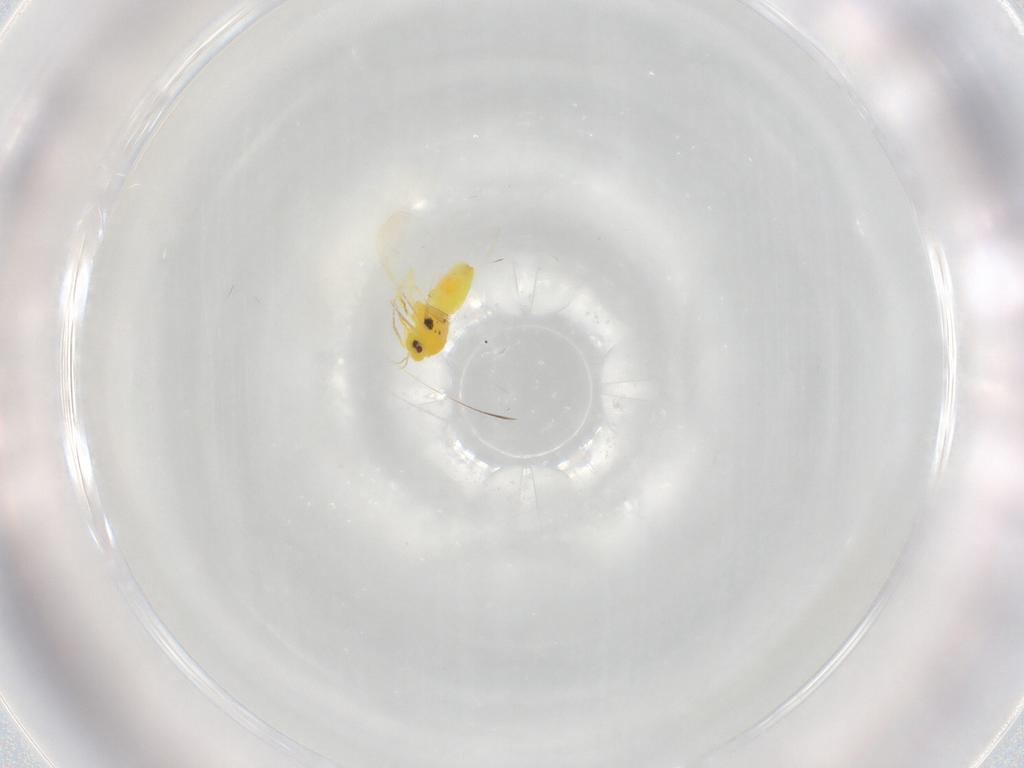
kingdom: Animalia
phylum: Arthropoda
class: Insecta
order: Hemiptera
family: Aleyrodidae
